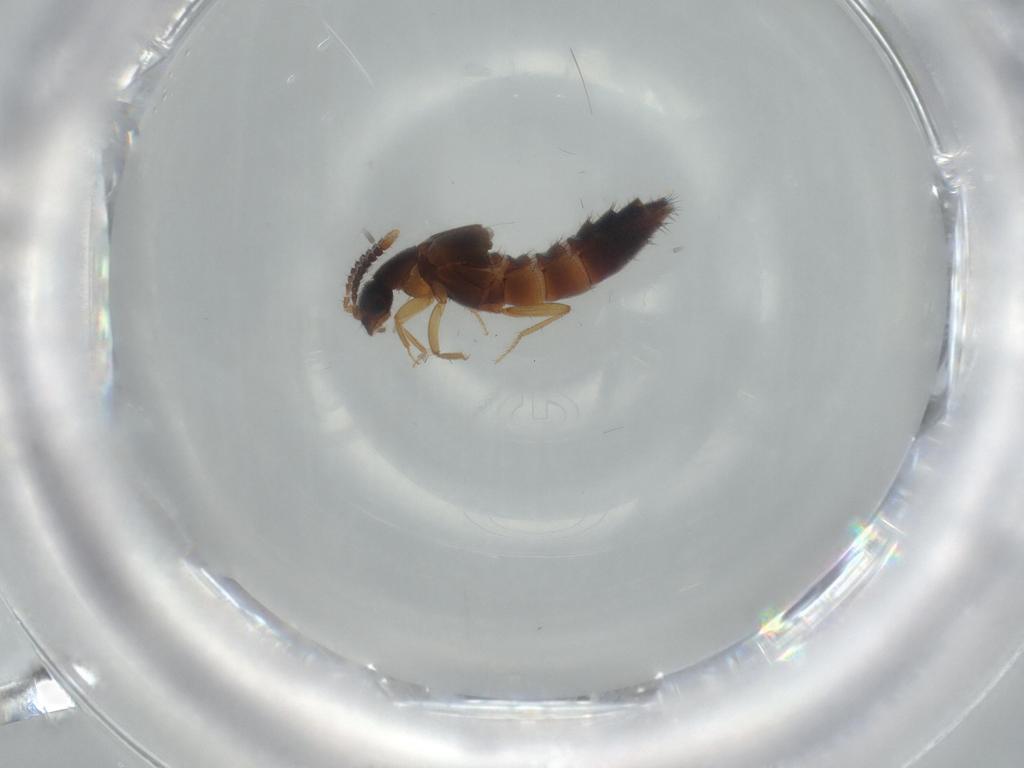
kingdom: Animalia
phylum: Arthropoda
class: Insecta
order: Coleoptera
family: Staphylinidae
